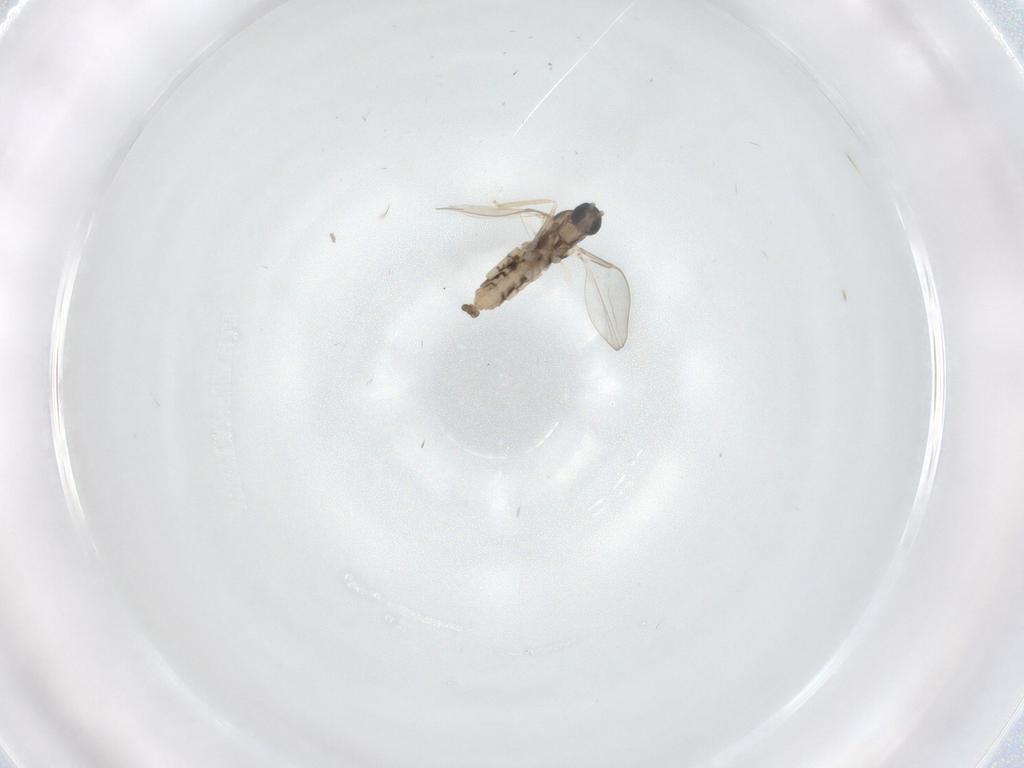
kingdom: Animalia
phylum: Arthropoda
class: Insecta
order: Diptera
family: Cecidomyiidae
